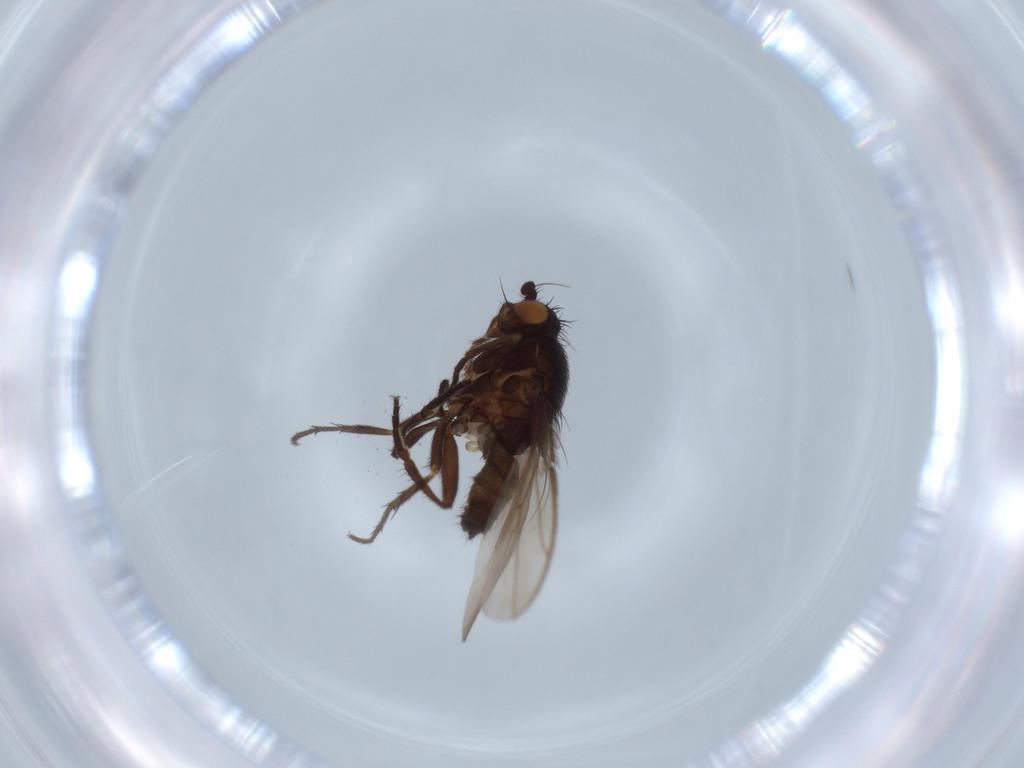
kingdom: Animalia
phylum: Arthropoda
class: Insecta
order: Diptera
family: Sphaeroceridae
